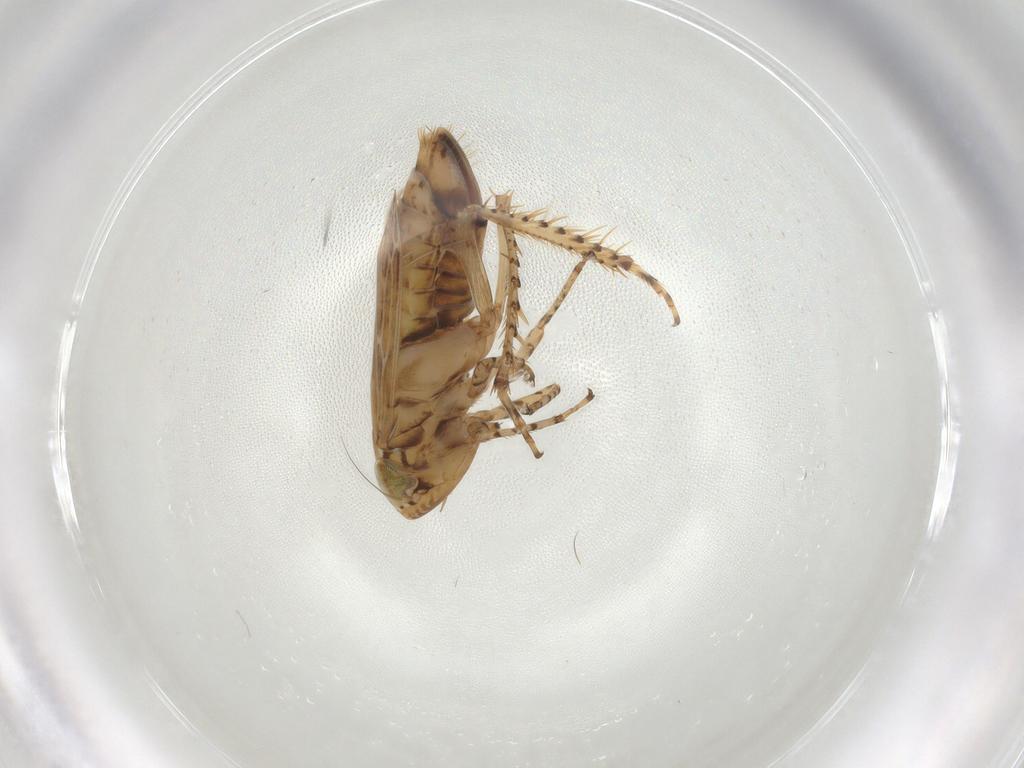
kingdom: Animalia
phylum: Arthropoda
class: Insecta
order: Hemiptera
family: Cicadellidae
